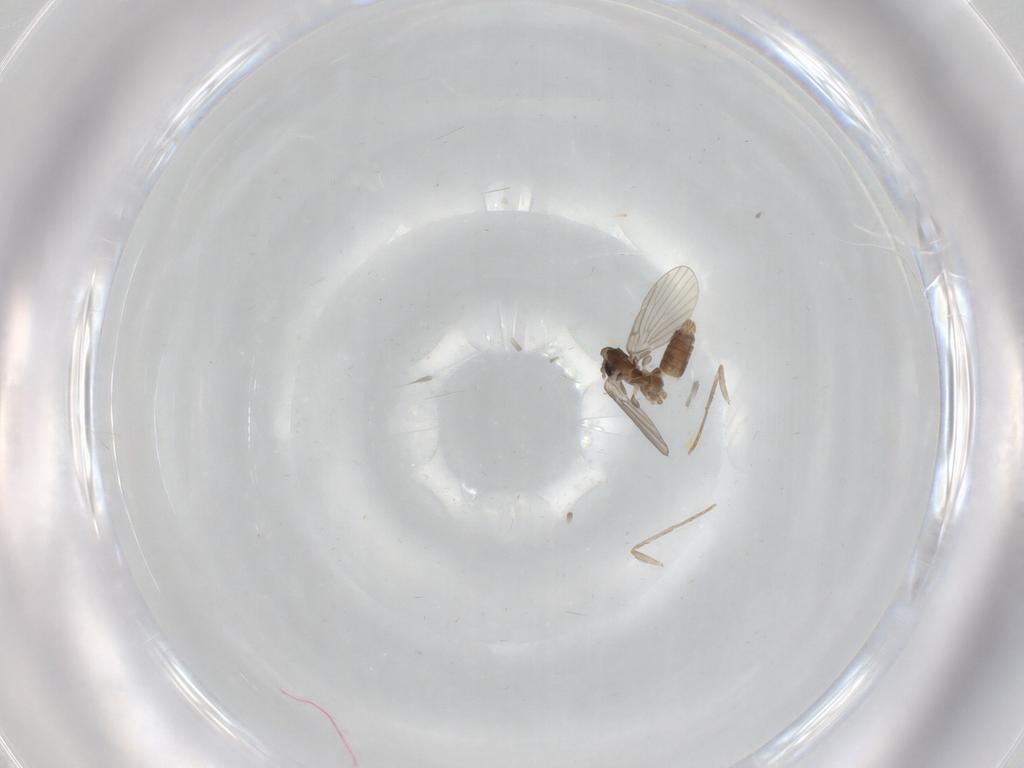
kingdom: Animalia
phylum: Arthropoda
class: Insecta
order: Diptera
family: Psychodidae
